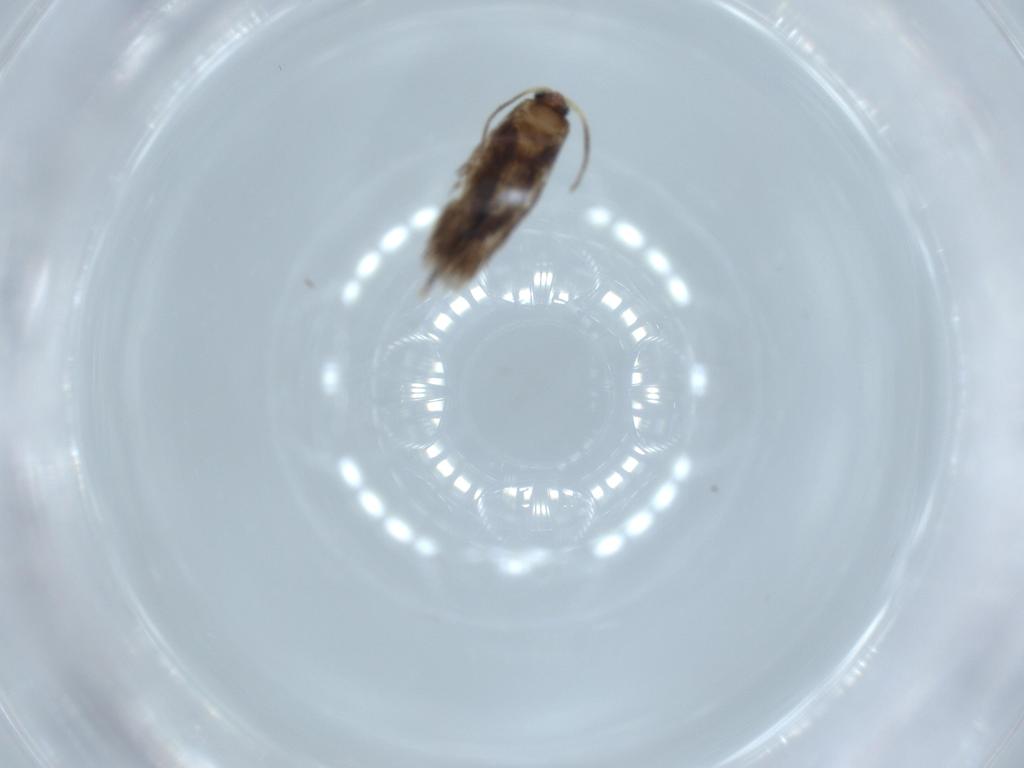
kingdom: Animalia
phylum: Arthropoda
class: Insecta
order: Lepidoptera
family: Nepticulidae
